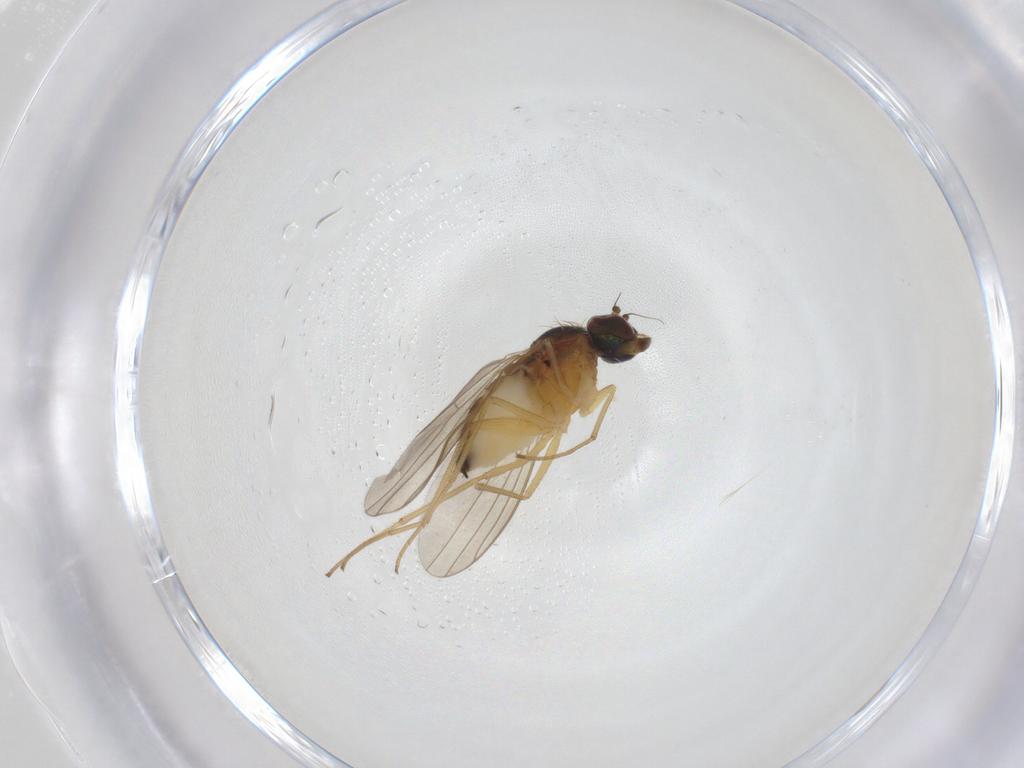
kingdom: Animalia
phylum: Arthropoda
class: Insecta
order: Diptera
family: Dolichopodidae
